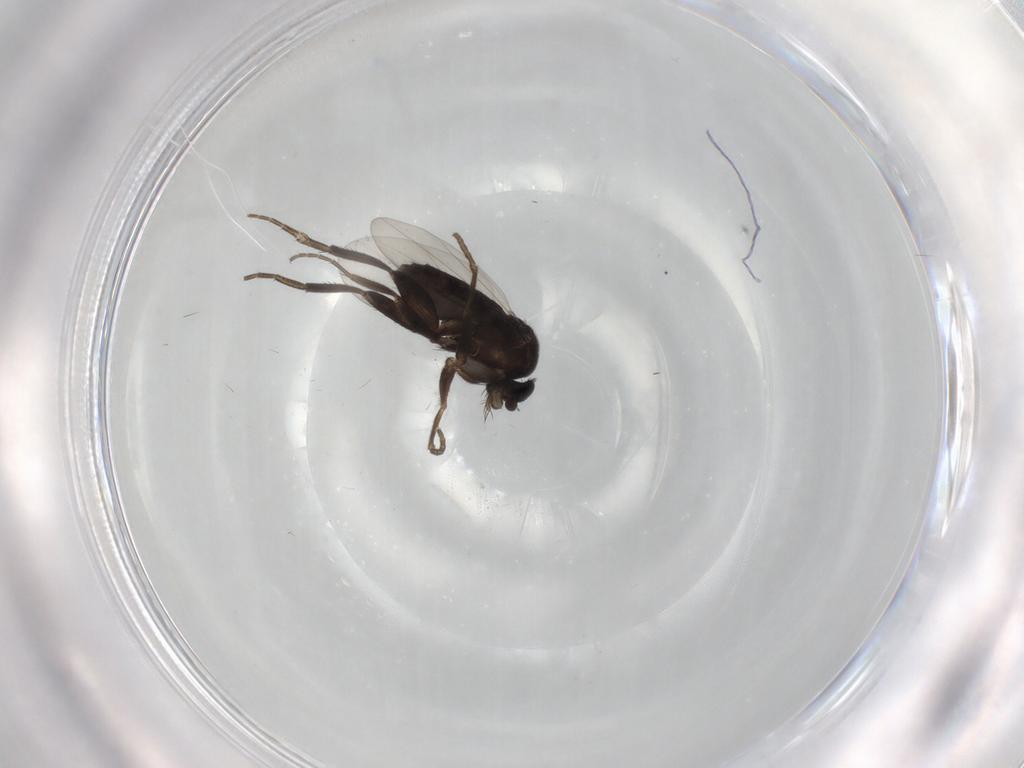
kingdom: Animalia
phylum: Arthropoda
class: Insecta
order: Diptera
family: Phoridae
